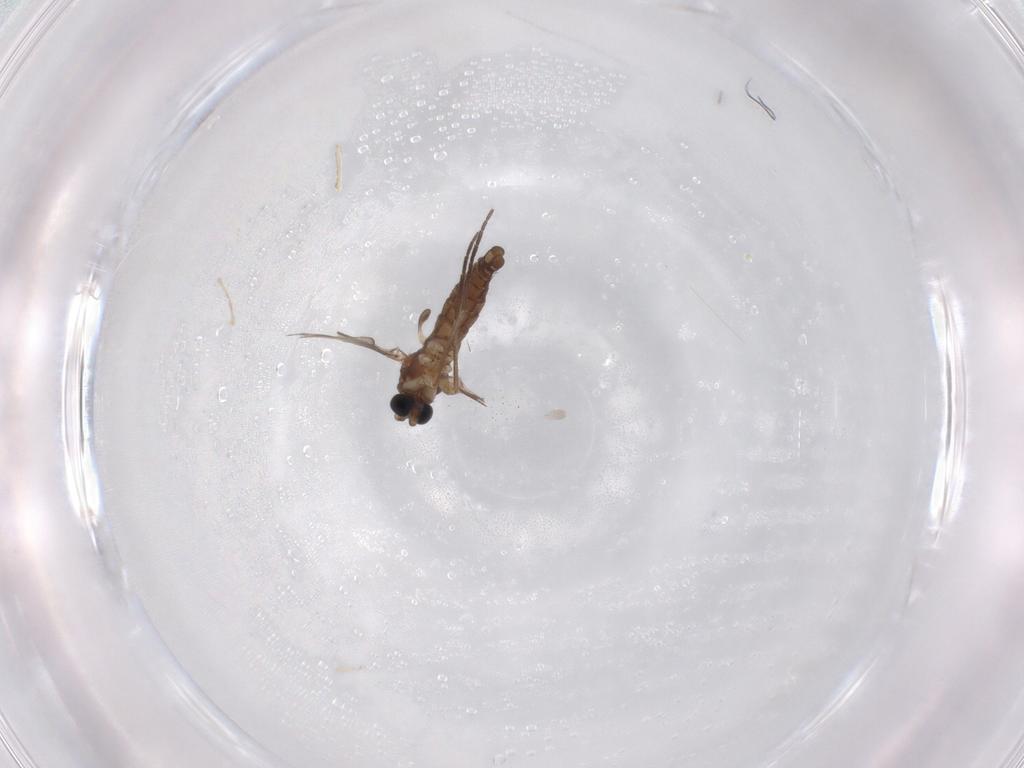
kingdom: Animalia
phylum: Arthropoda
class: Insecta
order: Diptera
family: Sciaridae
